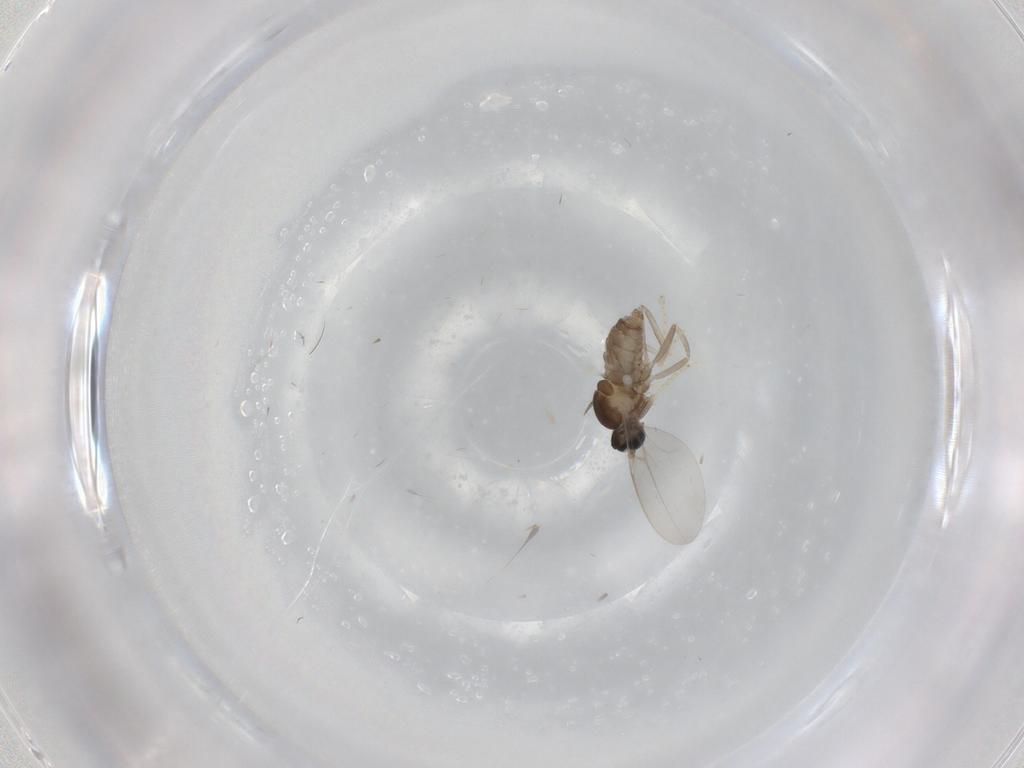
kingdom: Animalia
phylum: Arthropoda
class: Insecta
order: Diptera
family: Cecidomyiidae
